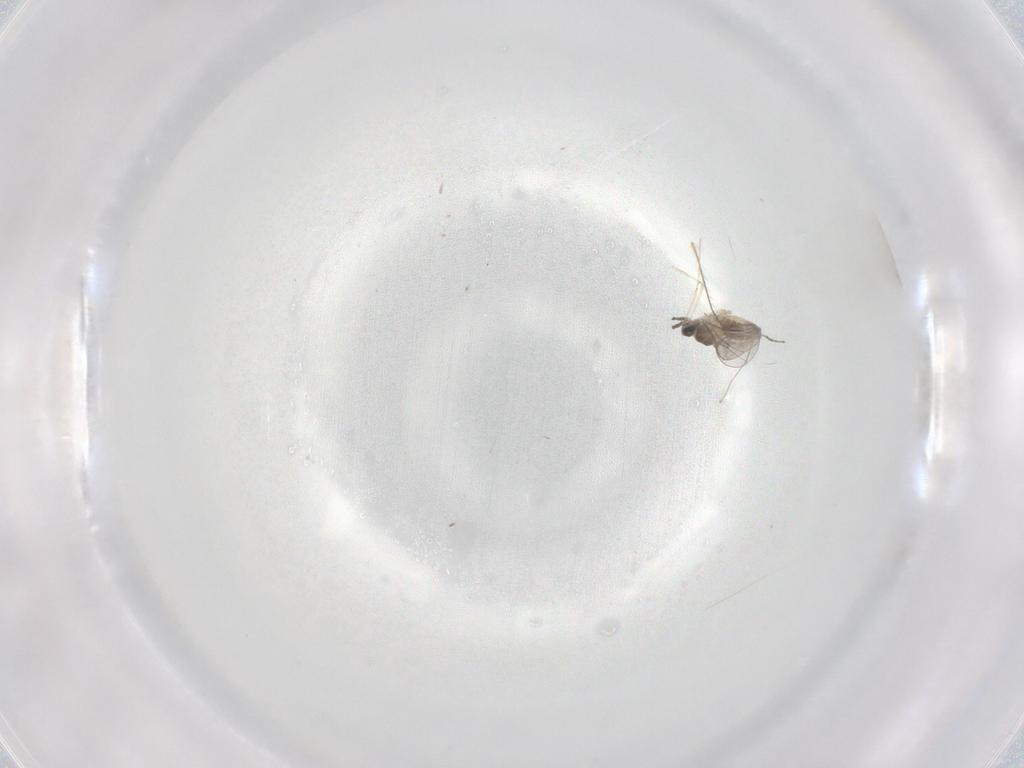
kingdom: Animalia
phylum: Arthropoda
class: Insecta
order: Diptera
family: Cecidomyiidae
